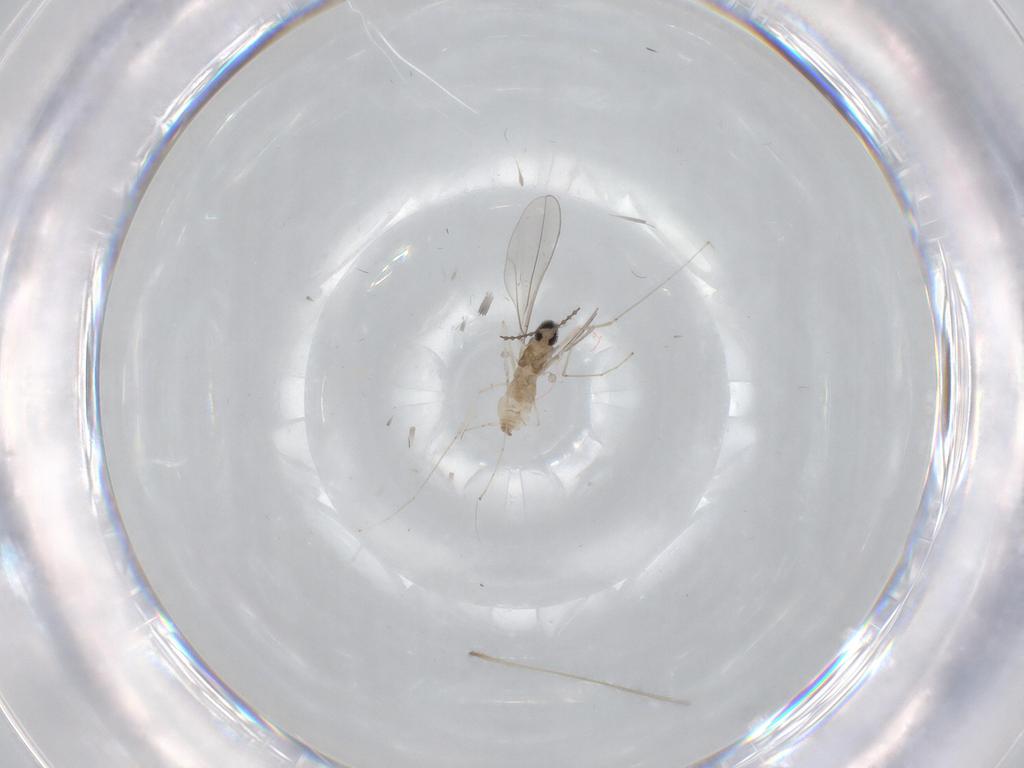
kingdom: Animalia
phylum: Arthropoda
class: Insecta
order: Diptera
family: Cecidomyiidae
